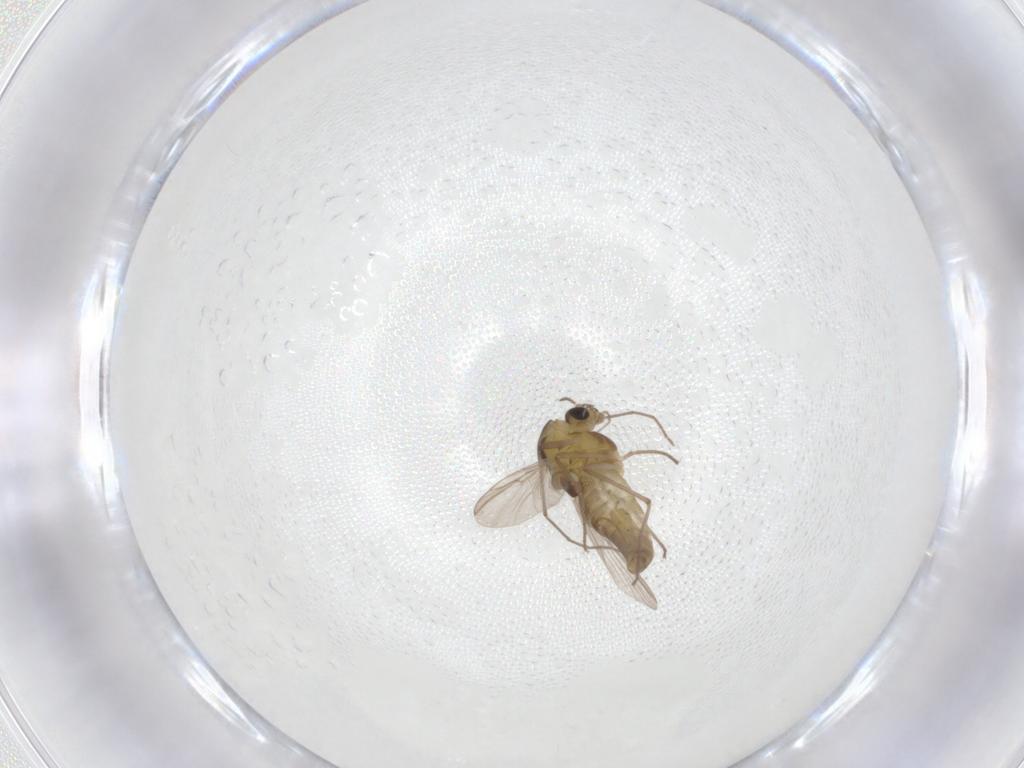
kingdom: Animalia
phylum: Arthropoda
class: Insecta
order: Diptera
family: Chironomidae
